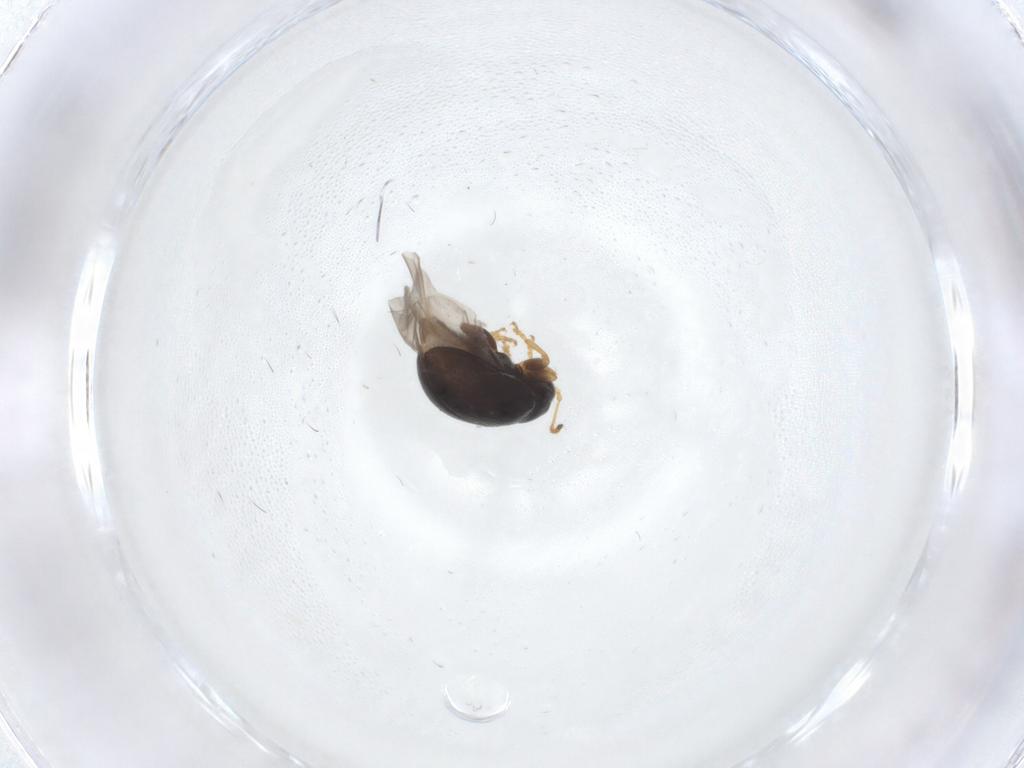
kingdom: Animalia
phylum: Arthropoda
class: Insecta
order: Coleoptera
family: Chrysomelidae
